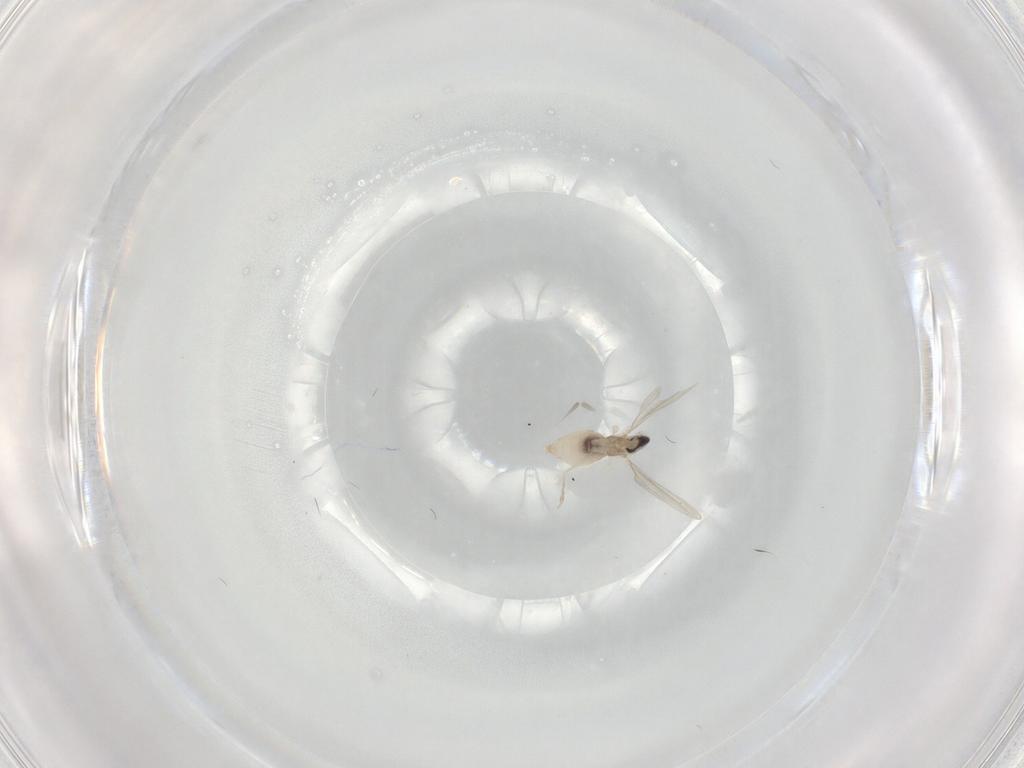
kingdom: Animalia
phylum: Arthropoda
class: Insecta
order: Diptera
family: Cecidomyiidae
